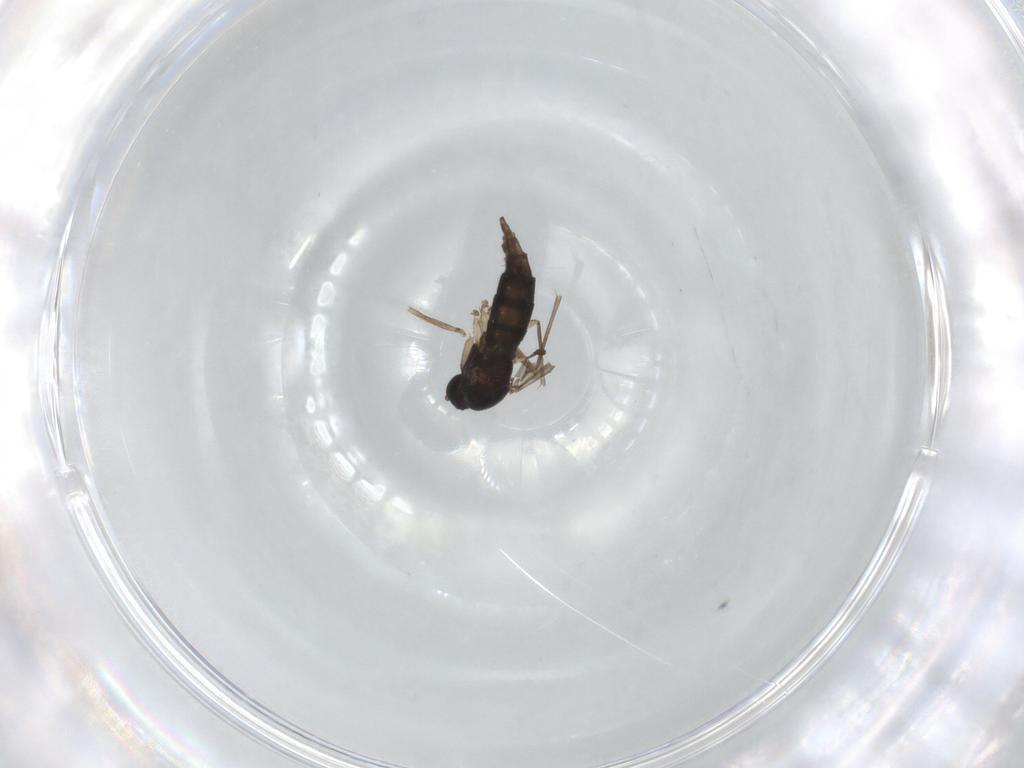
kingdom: Animalia
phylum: Arthropoda
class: Insecta
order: Diptera
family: Sciaridae
